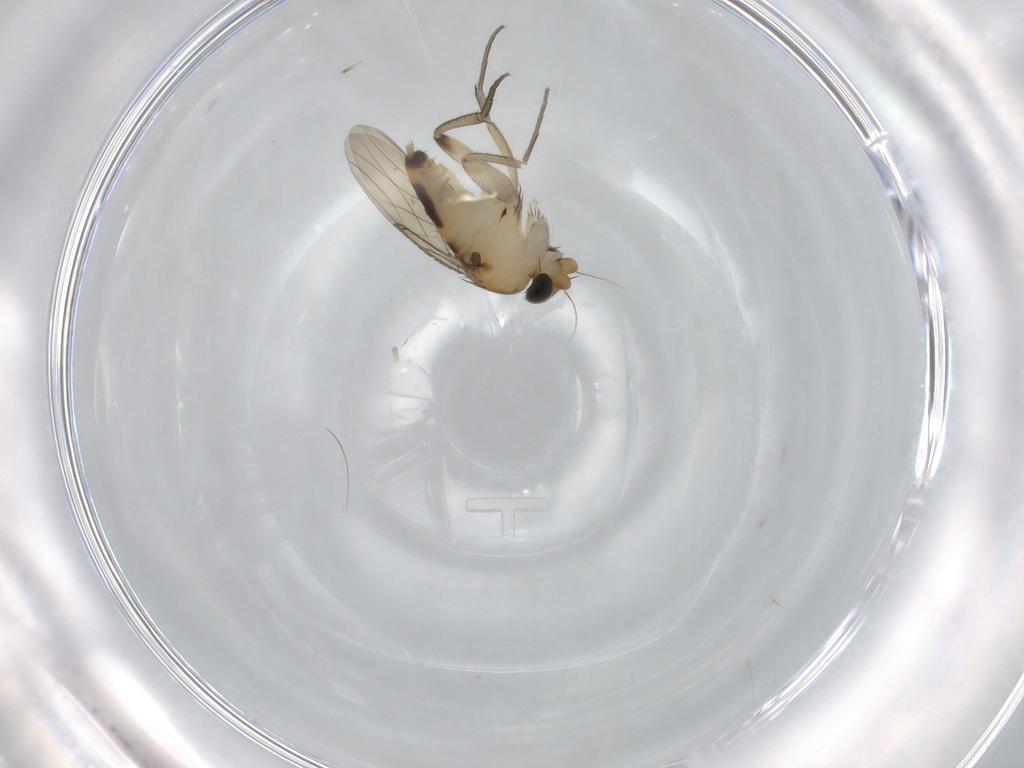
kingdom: Animalia
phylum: Arthropoda
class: Insecta
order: Diptera
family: Phoridae
